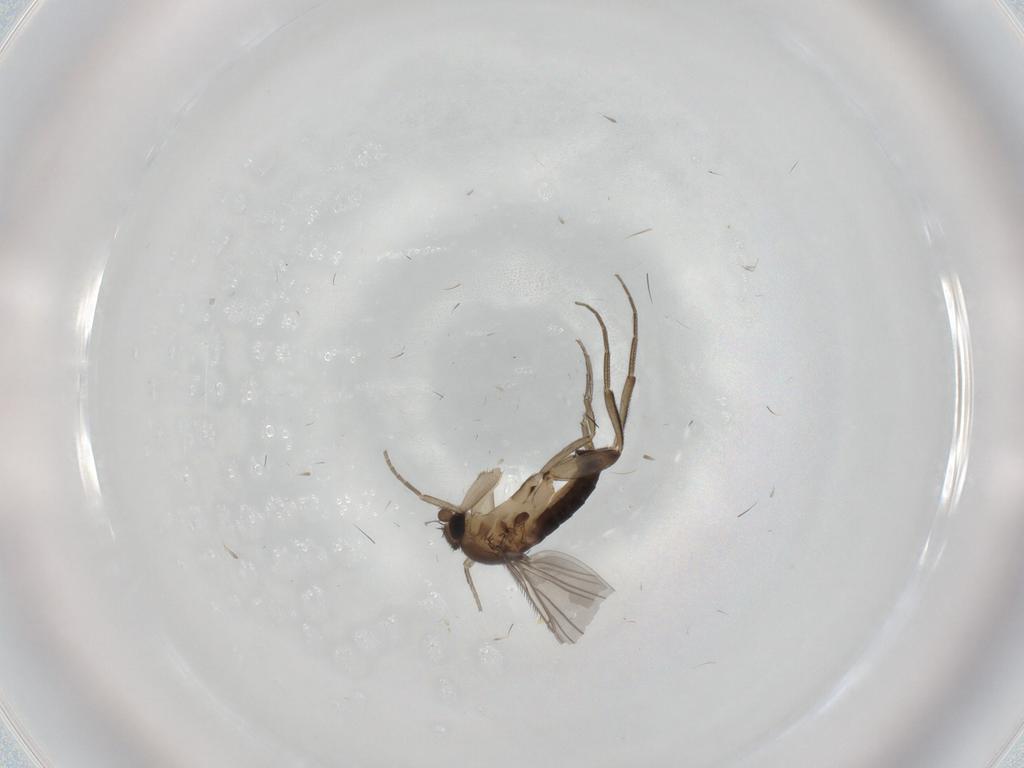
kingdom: Animalia
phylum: Arthropoda
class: Insecta
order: Diptera
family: Phoridae
